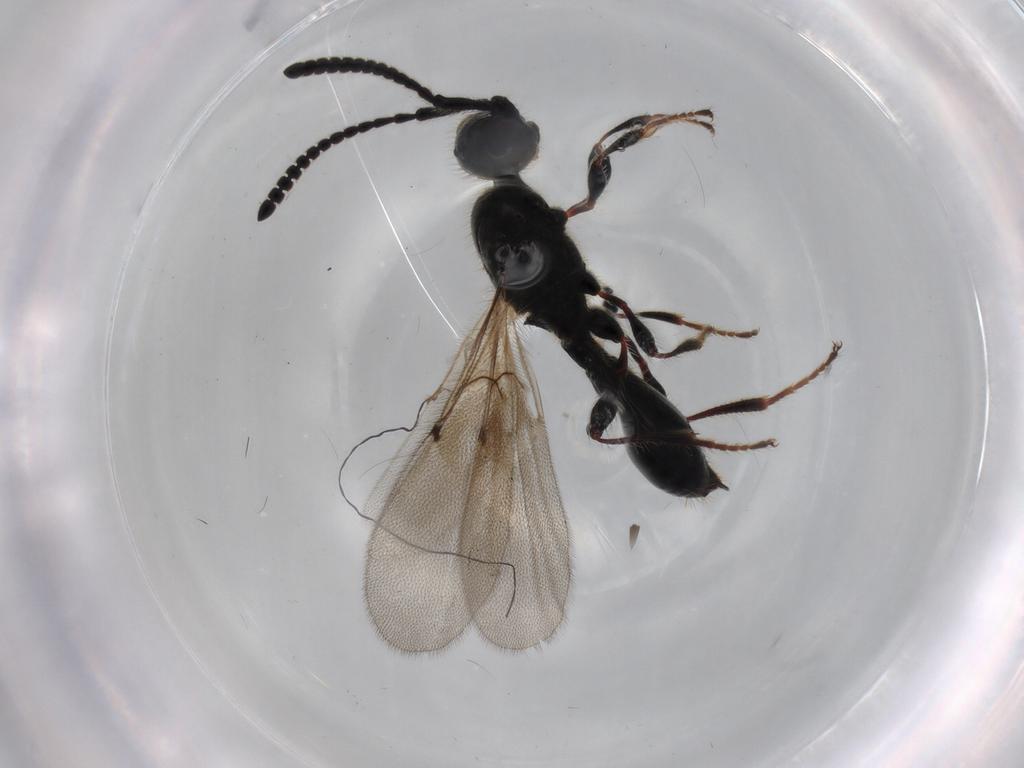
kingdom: Animalia
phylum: Arthropoda
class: Insecta
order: Hymenoptera
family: Diapriidae
